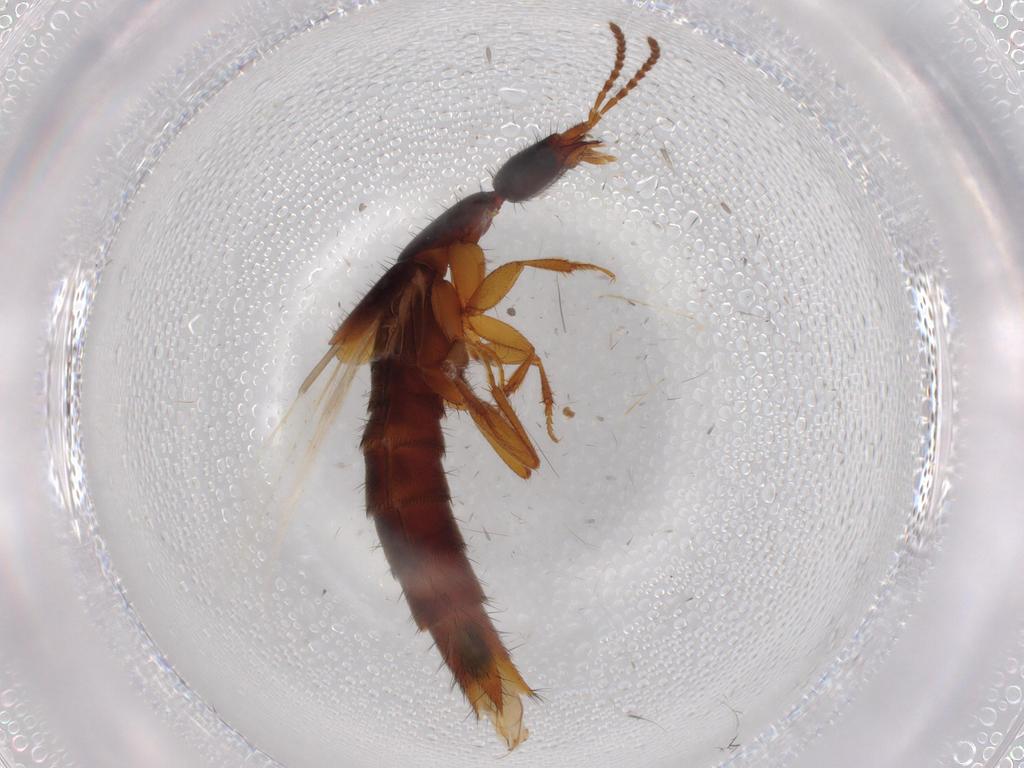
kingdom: Animalia
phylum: Arthropoda
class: Insecta
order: Coleoptera
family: Staphylinidae
